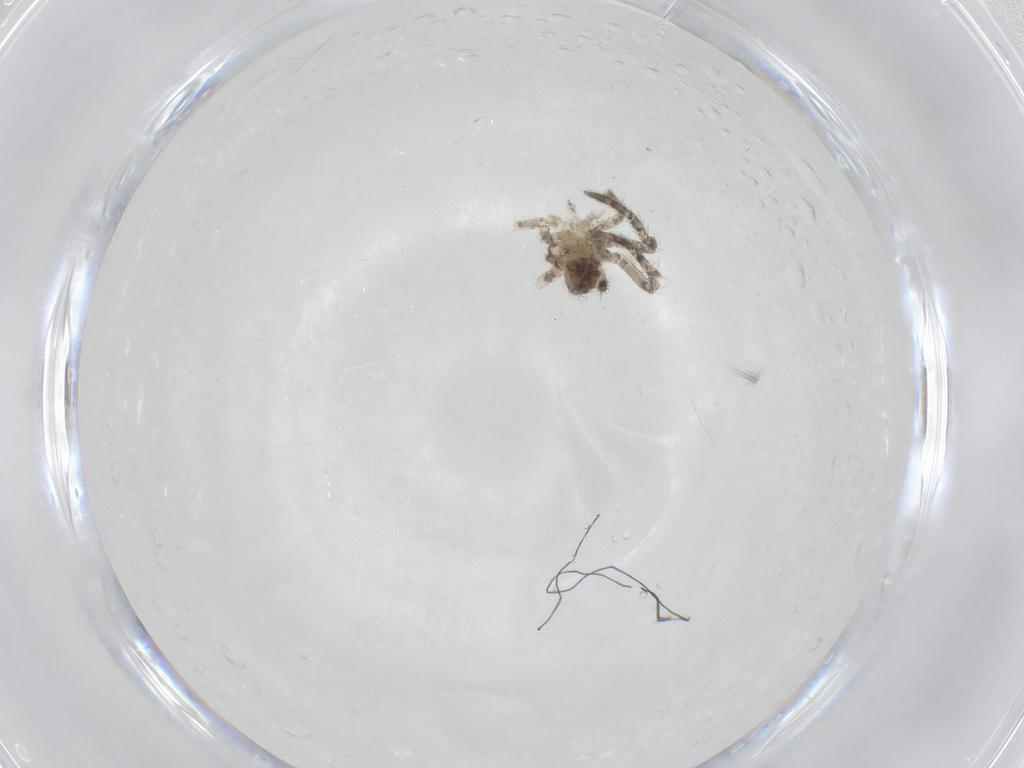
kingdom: Animalia
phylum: Arthropoda
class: Arachnida
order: Araneae
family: Araneidae
